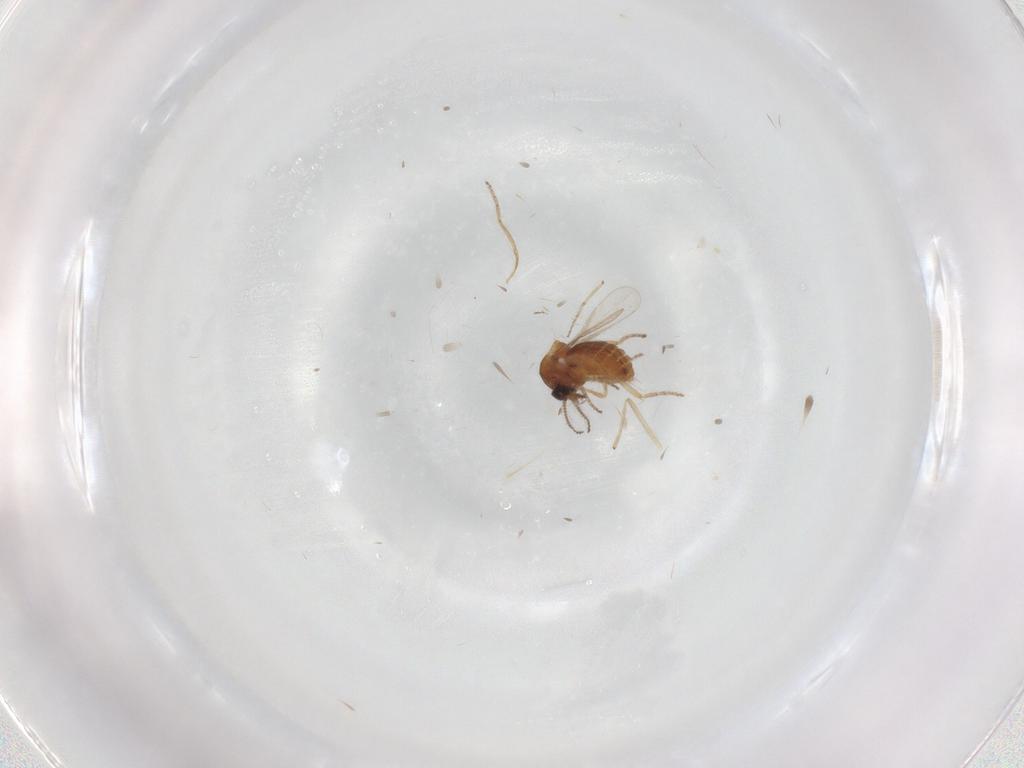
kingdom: Animalia
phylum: Arthropoda
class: Insecta
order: Diptera
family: Ceratopogonidae
